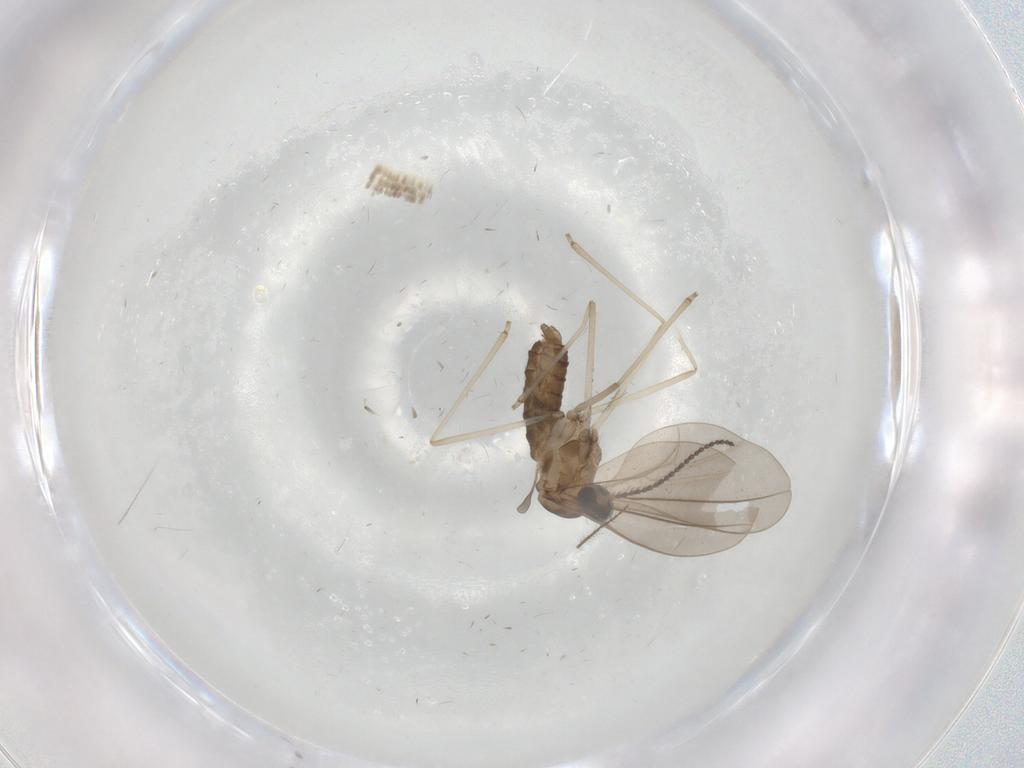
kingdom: Animalia
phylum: Arthropoda
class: Insecta
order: Diptera
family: Cecidomyiidae
